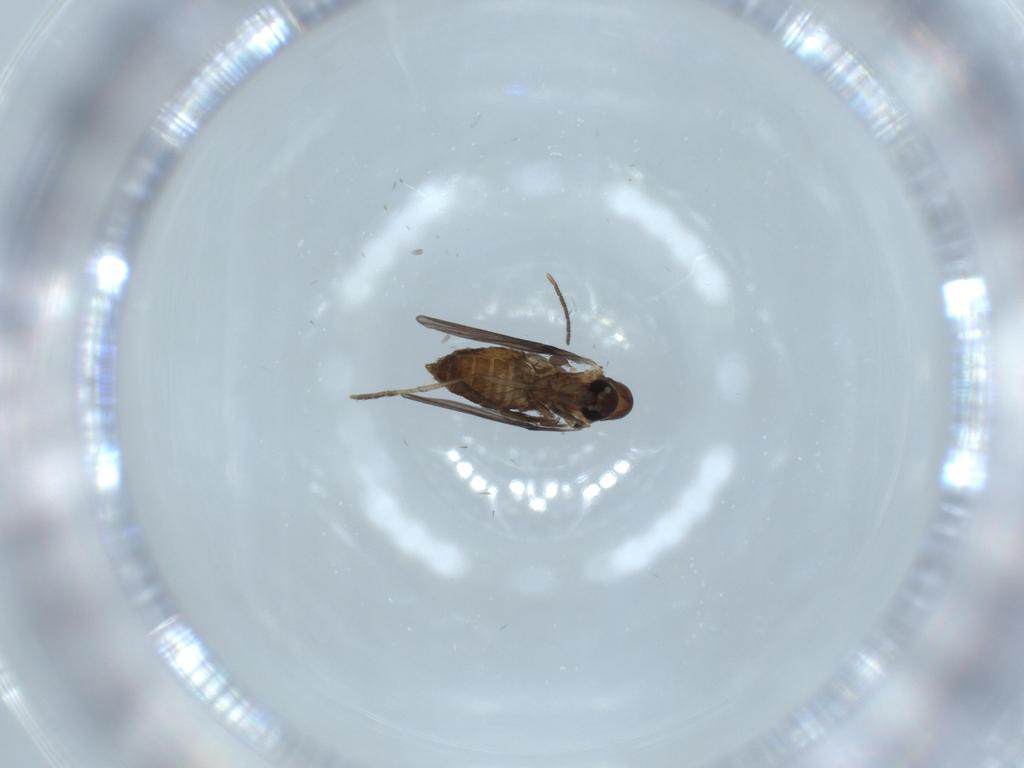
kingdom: Animalia
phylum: Arthropoda
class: Insecta
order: Diptera
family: Psychodidae
